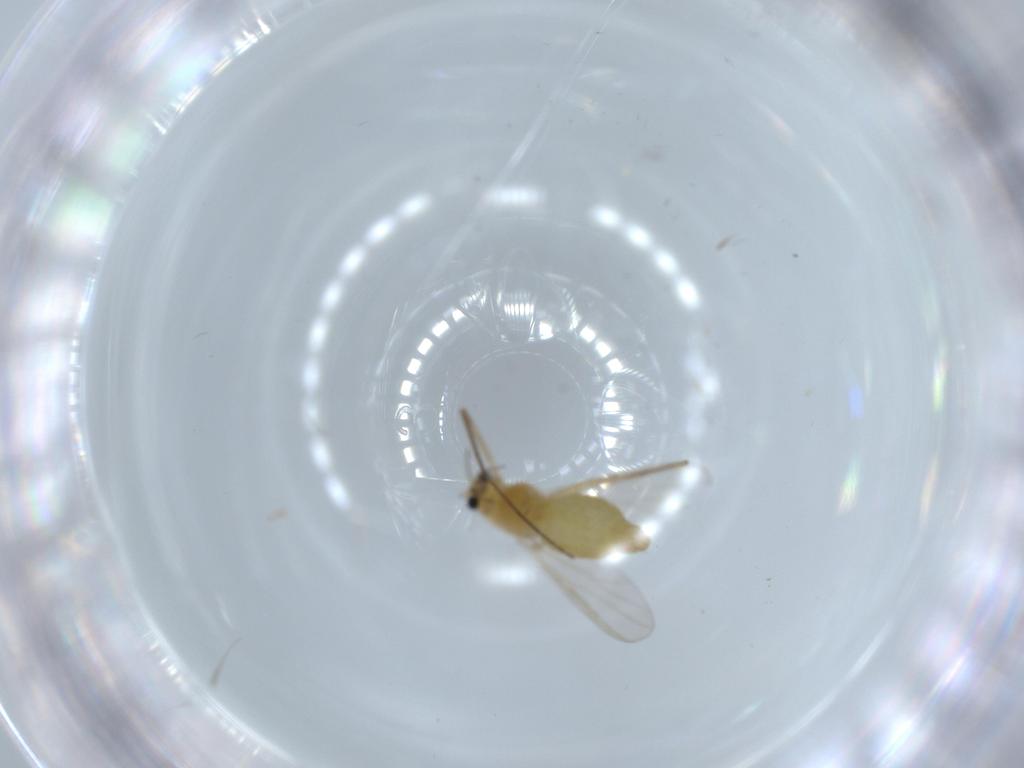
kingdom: Animalia
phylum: Arthropoda
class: Insecta
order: Diptera
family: Chironomidae
